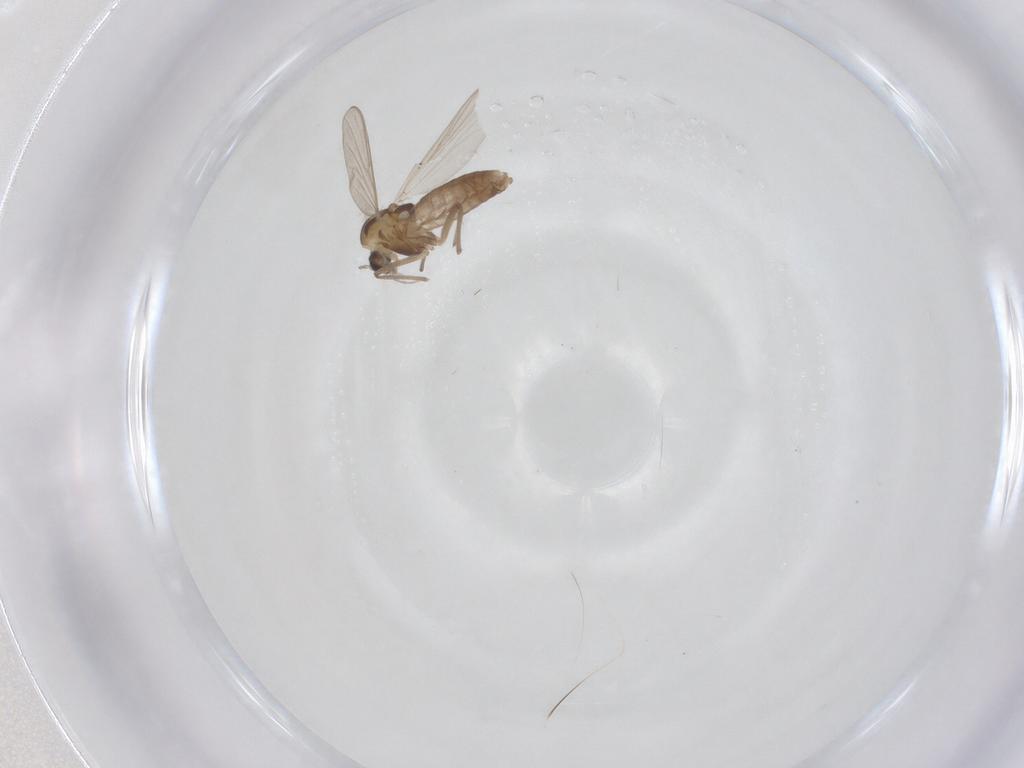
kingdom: Animalia
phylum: Arthropoda
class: Insecta
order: Diptera
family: Chironomidae
